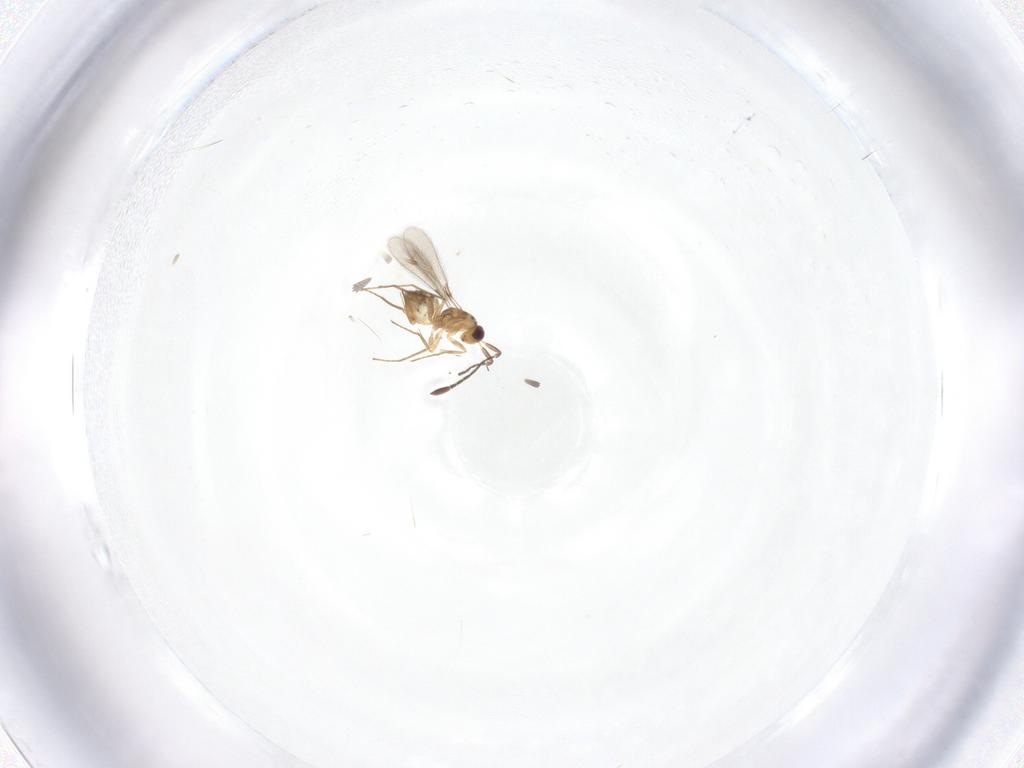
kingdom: Animalia
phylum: Arthropoda
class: Insecta
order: Hymenoptera
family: Mymaridae
